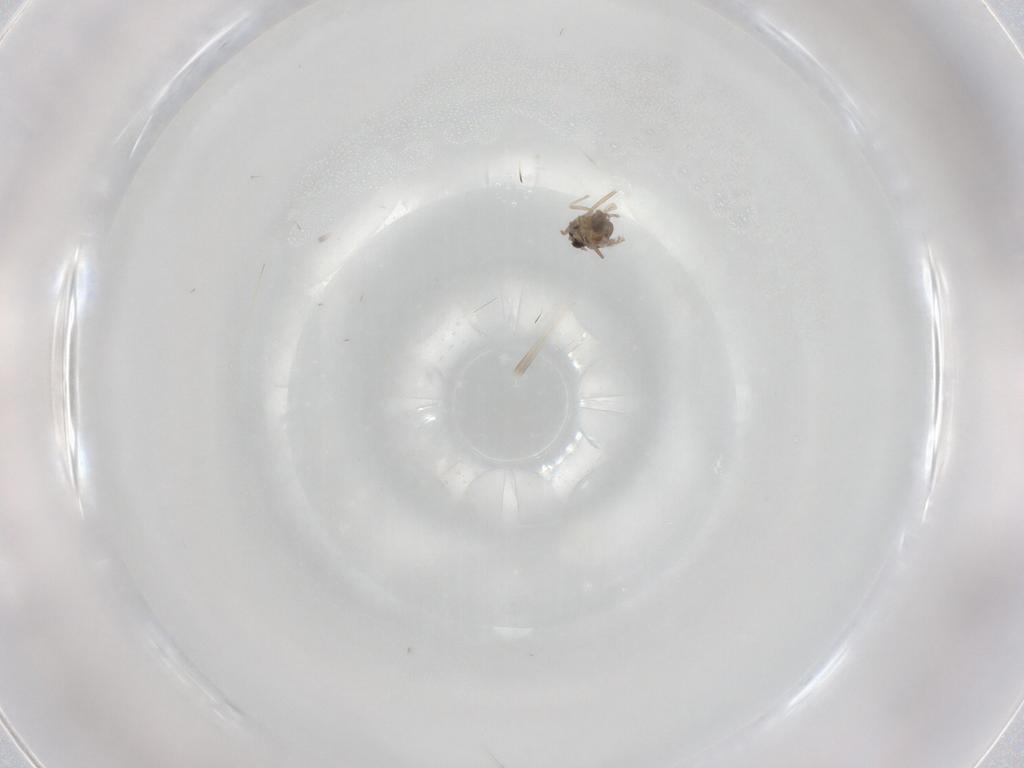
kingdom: Animalia
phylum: Arthropoda
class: Insecta
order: Diptera
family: Cecidomyiidae
